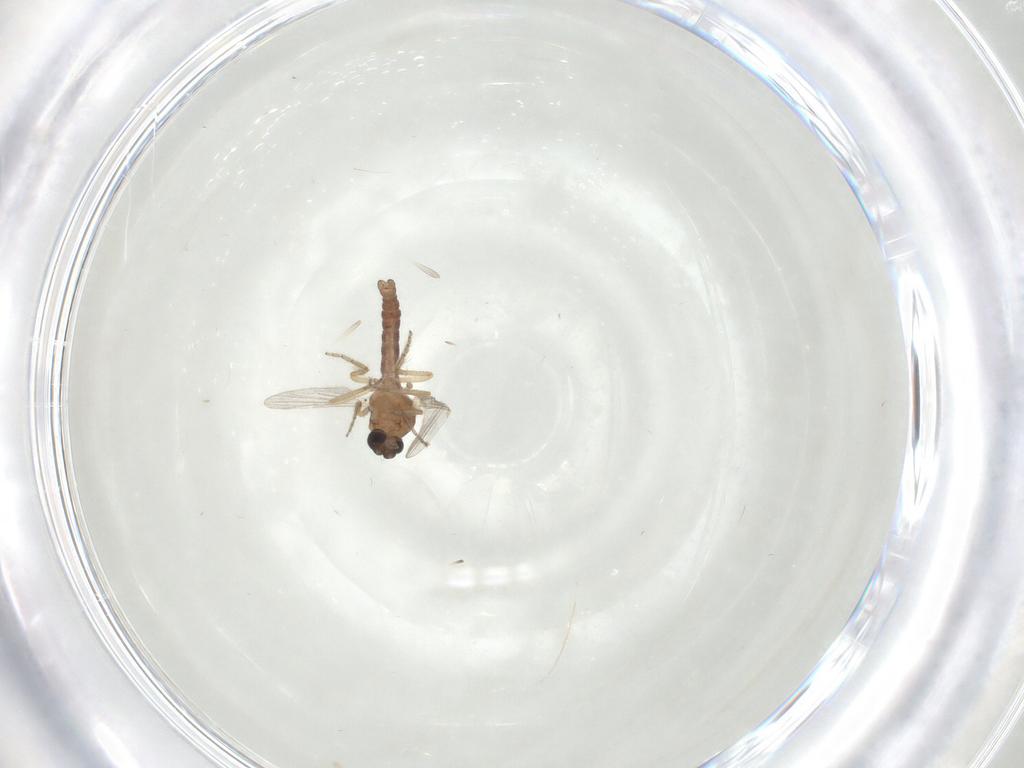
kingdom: Animalia
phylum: Arthropoda
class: Insecta
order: Diptera
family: Ceratopogonidae
